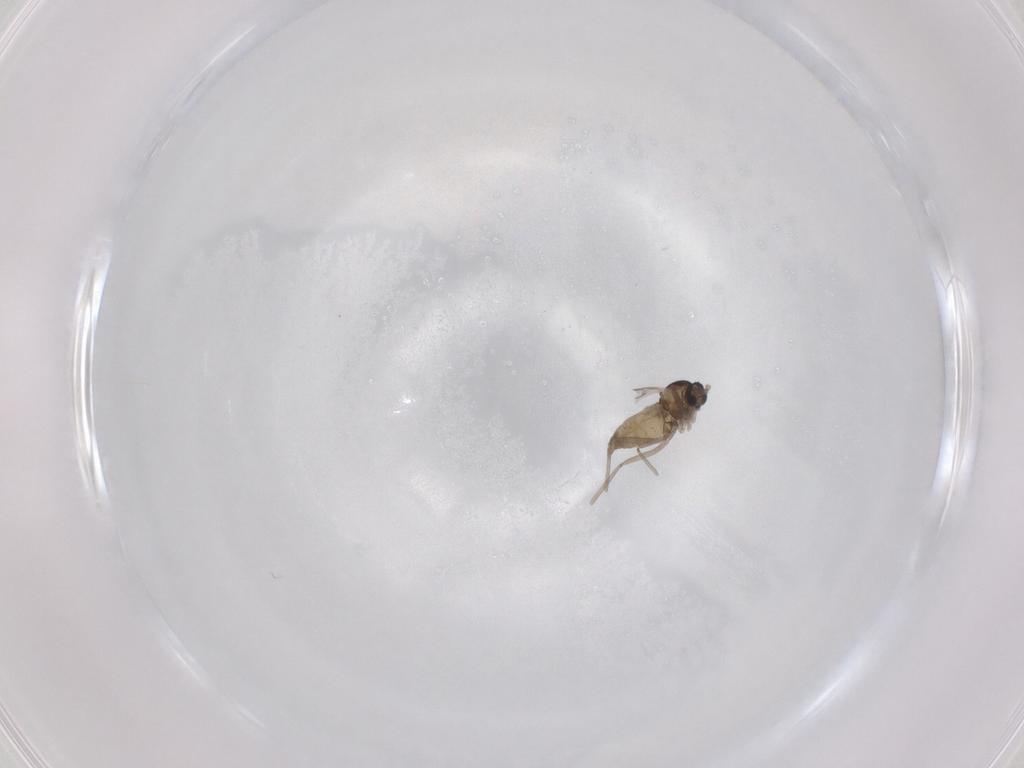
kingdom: Animalia
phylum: Arthropoda
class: Insecta
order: Diptera
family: Cecidomyiidae
